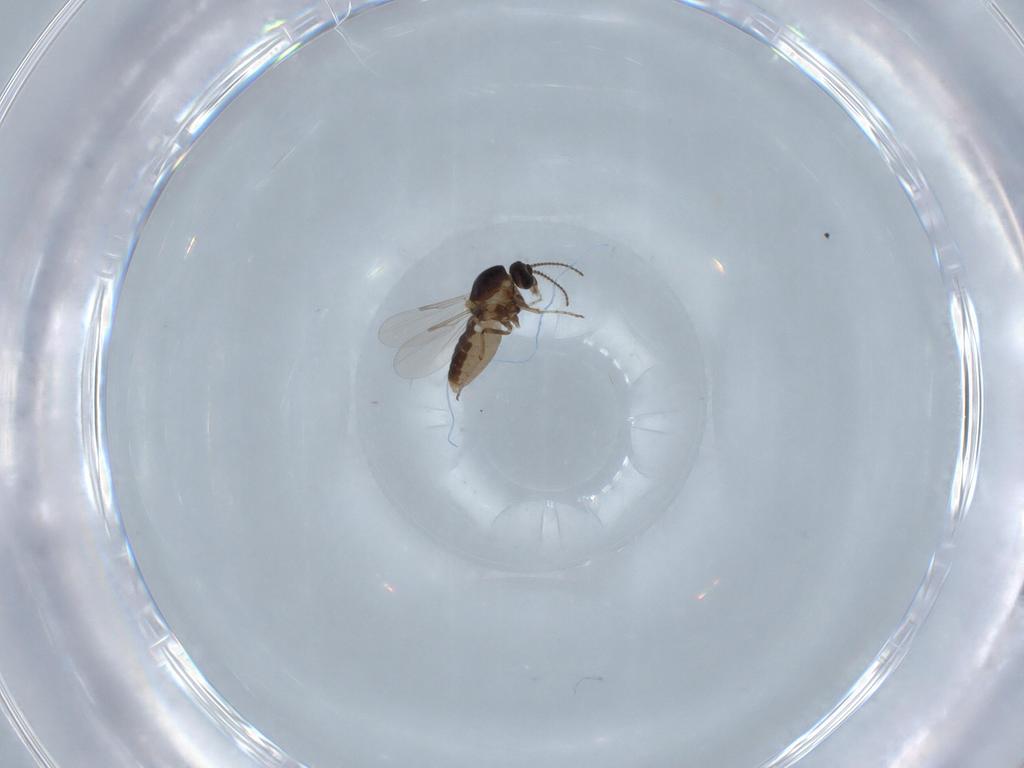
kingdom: Animalia
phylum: Arthropoda
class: Insecta
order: Diptera
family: Ceratopogonidae
